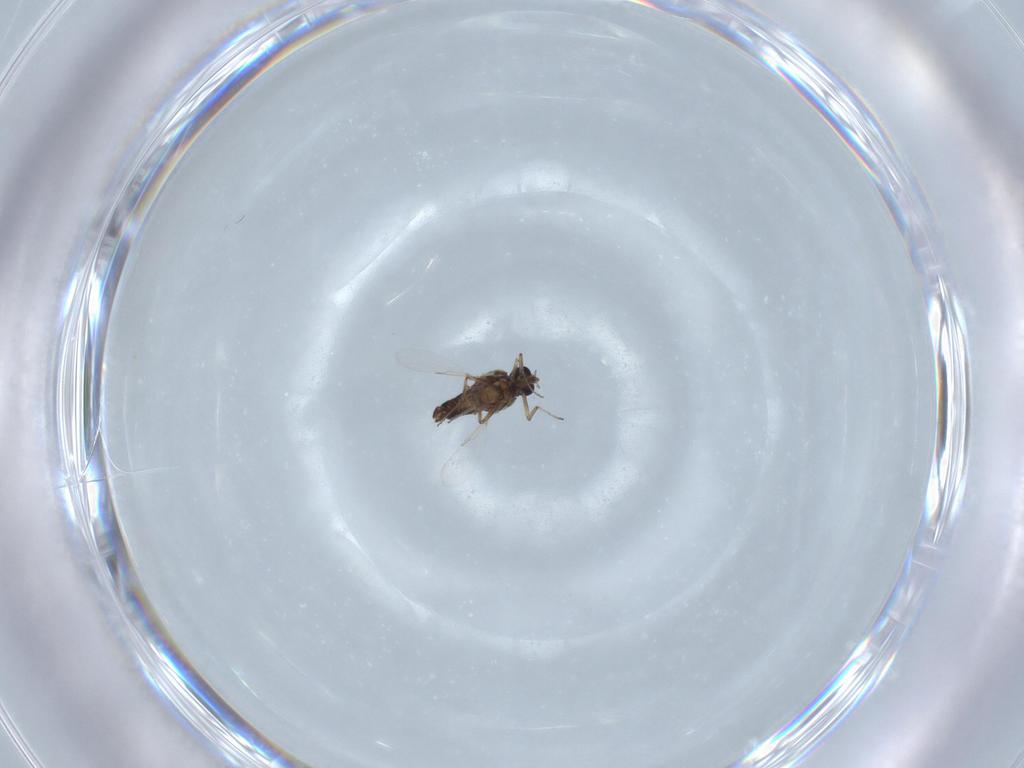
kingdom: Animalia
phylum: Arthropoda
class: Insecta
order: Diptera
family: Ceratopogonidae
